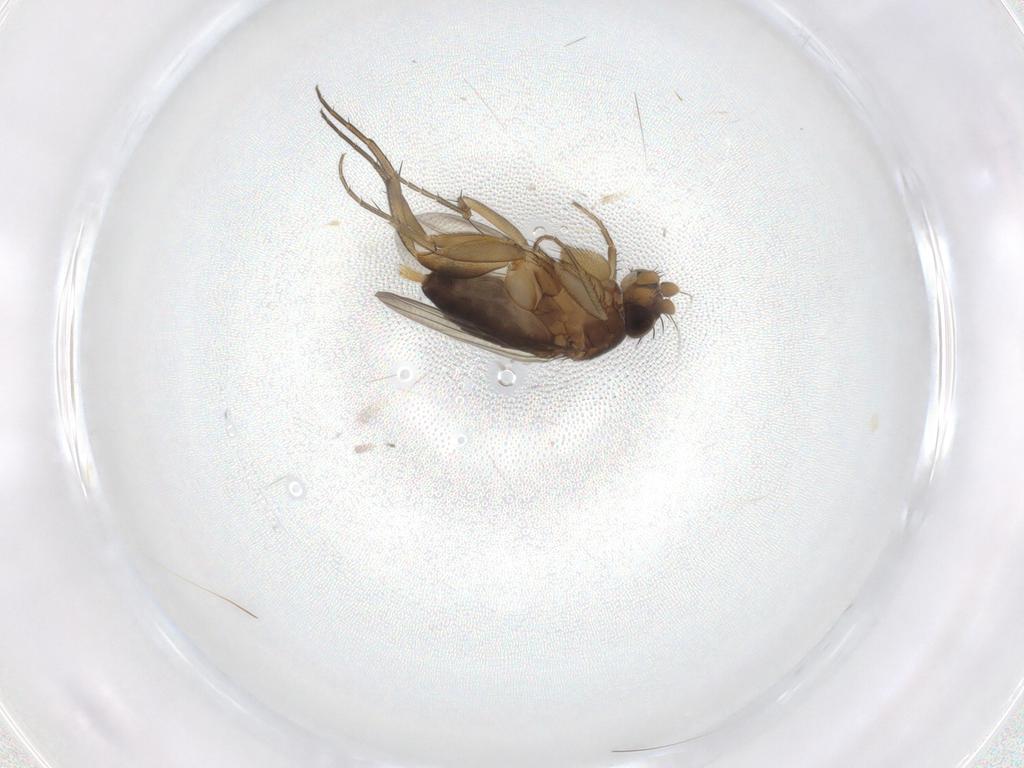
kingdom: Animalia
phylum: Arthropoda
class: Insecta
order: Diptera
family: Phoridae
